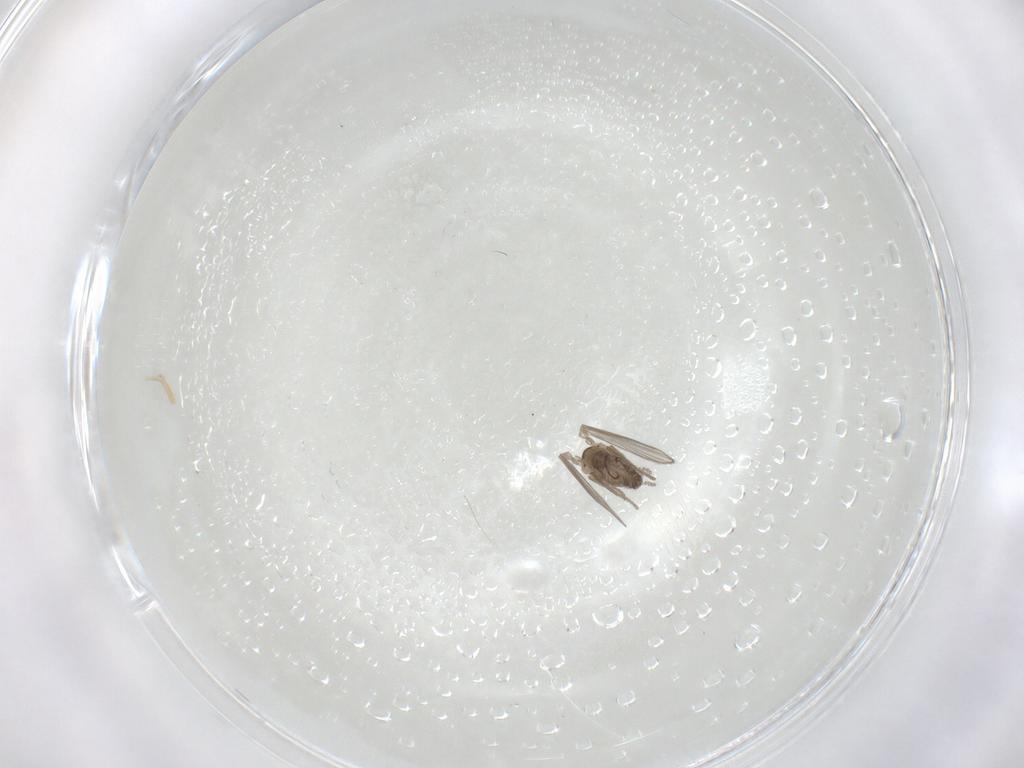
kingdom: Animalia
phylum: Arthropoda
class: Insecta
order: Diptera
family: Psychodidae
